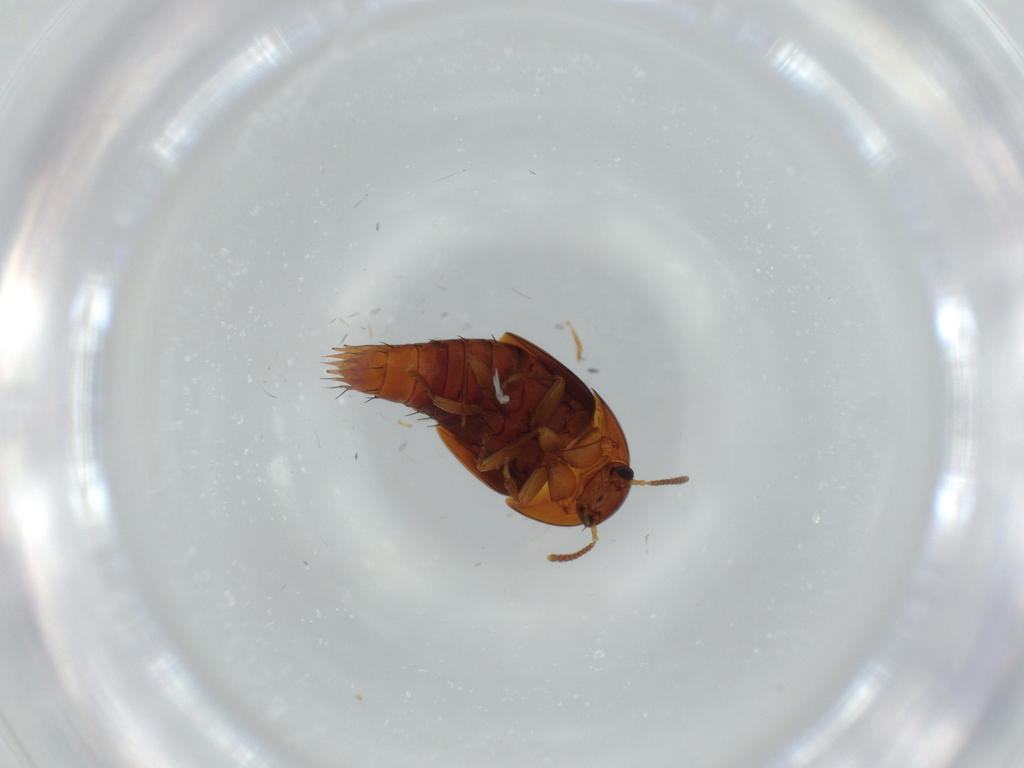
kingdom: Animalia
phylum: Arthropoda
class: Insecta
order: Coleoptera
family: Staphylinidae
